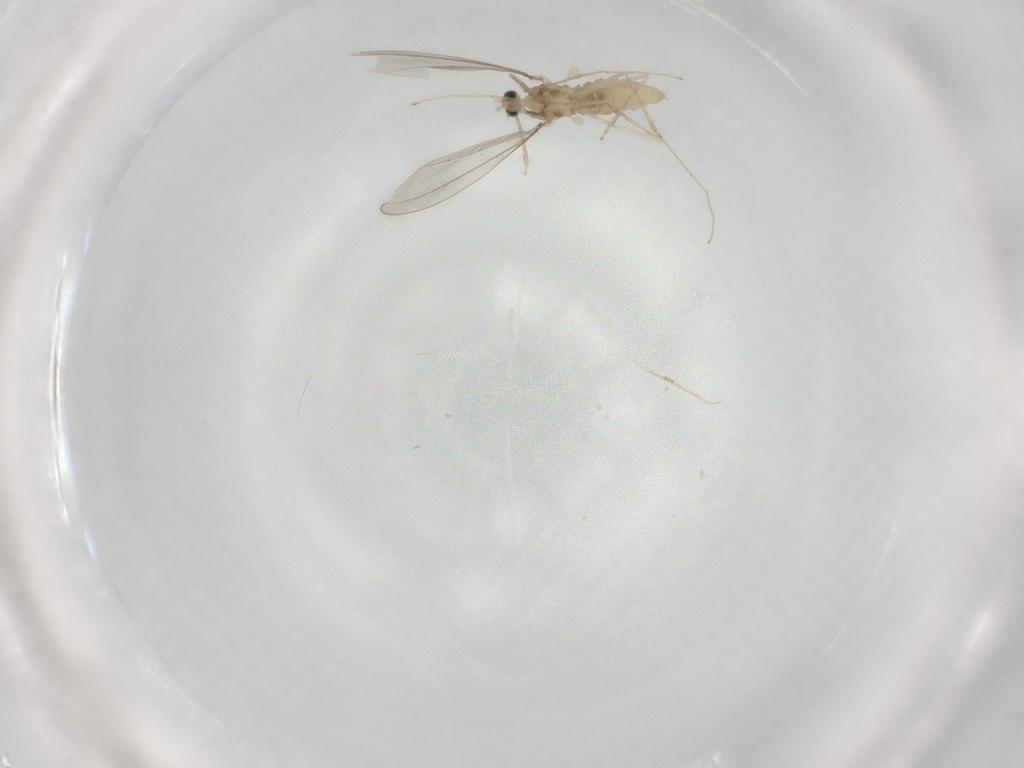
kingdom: Animalia
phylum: Arthropoda
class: Insecta
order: Diptera
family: Cecidomyiidae
